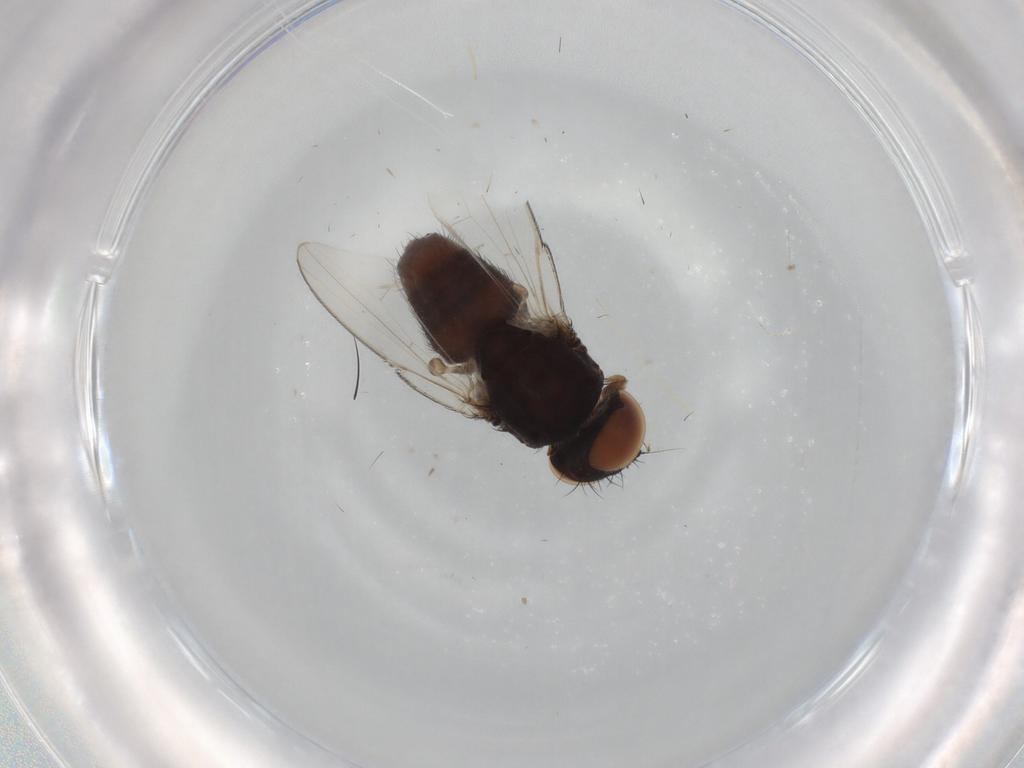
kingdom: Animalia
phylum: Arthropoda
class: Insecta
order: Diptera
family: Milichiidae
